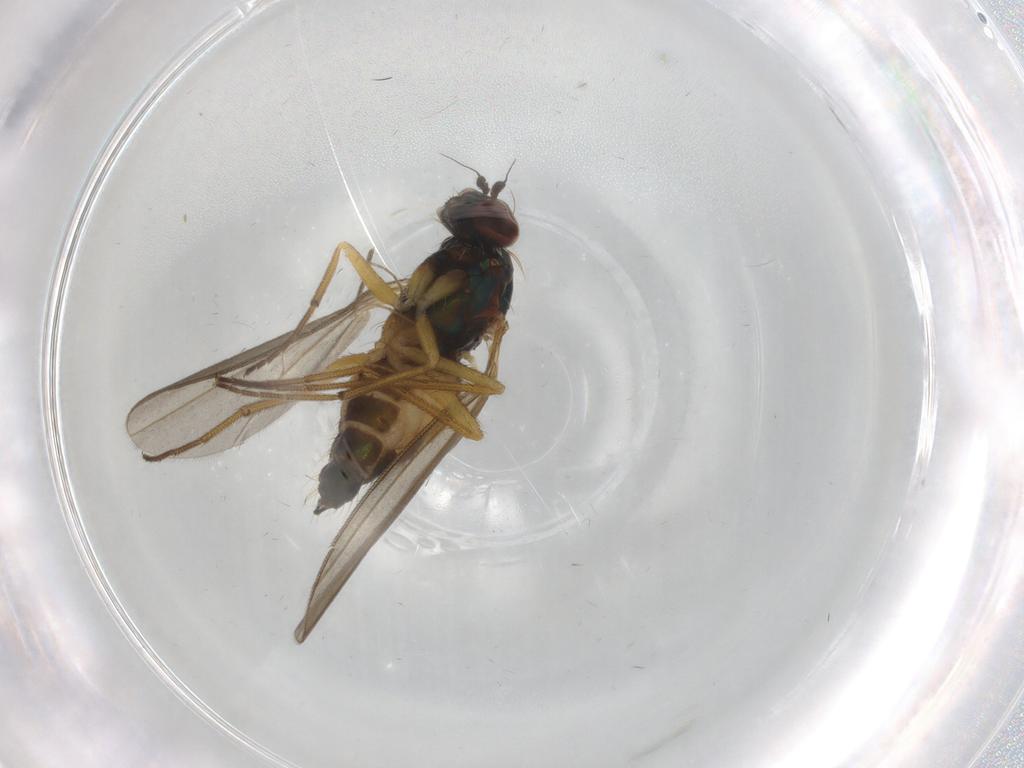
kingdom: Animalia
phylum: Arthropoda
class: Insecta
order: Diptera
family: Dolichopodidae
